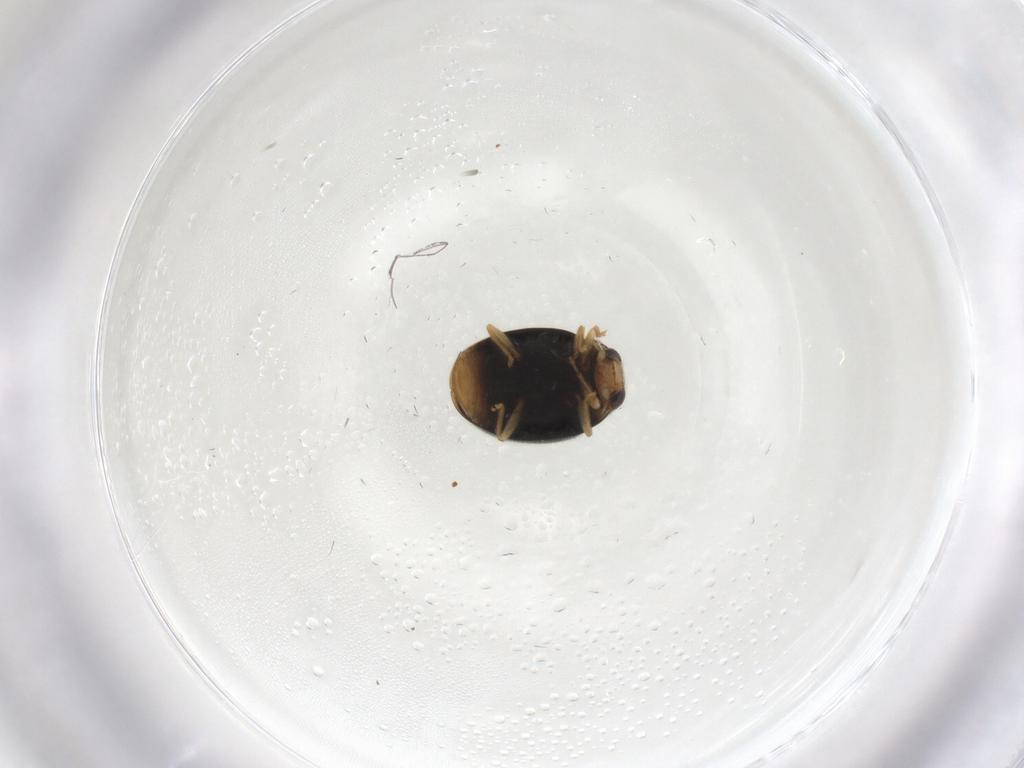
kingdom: Animalia
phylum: Arthropoda
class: Insecta
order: Coleoptera
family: Coccinellidae
